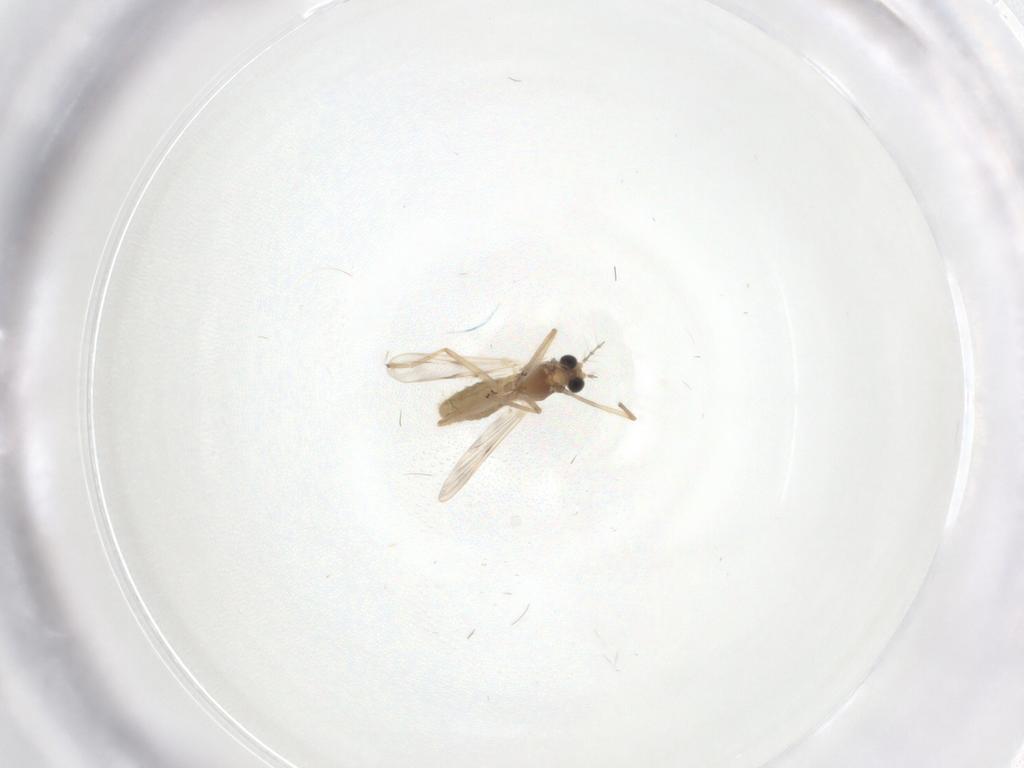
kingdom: Animalia
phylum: Arthropoda
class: Insecta
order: Diptera
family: Chironomidae
